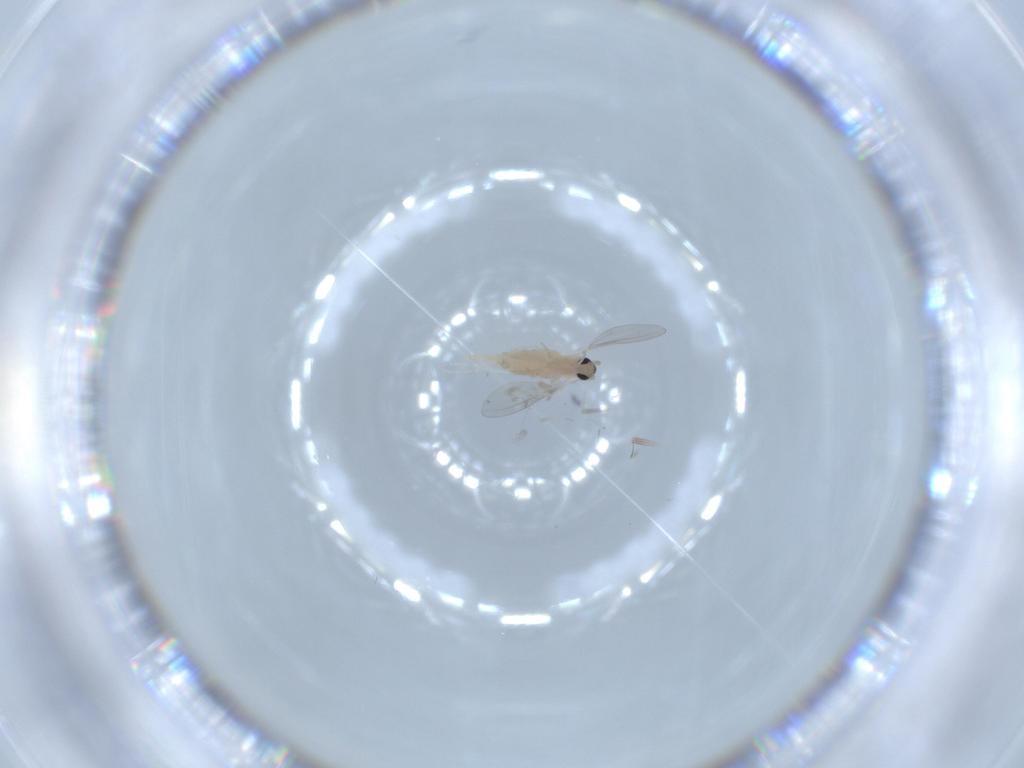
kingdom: Animalia
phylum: Arthropoda
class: Insecta
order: Diptera
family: Cecidomyiidae
